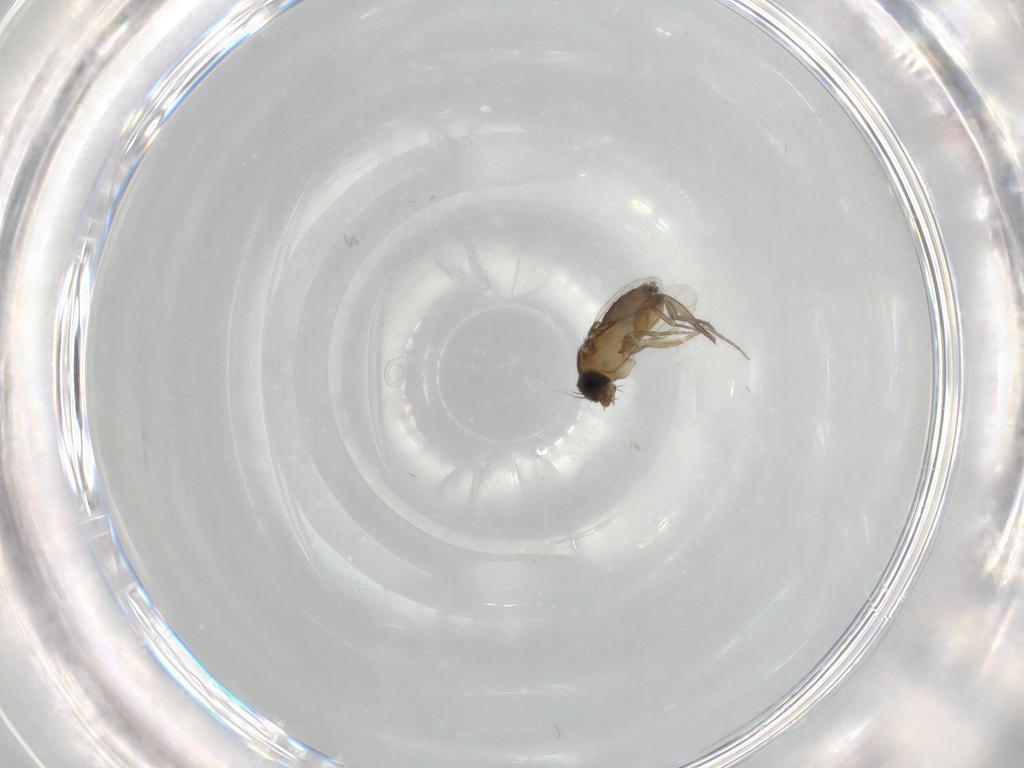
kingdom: Animalia
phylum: Arthropoda
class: Insecta
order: Diptera
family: Phoridae
